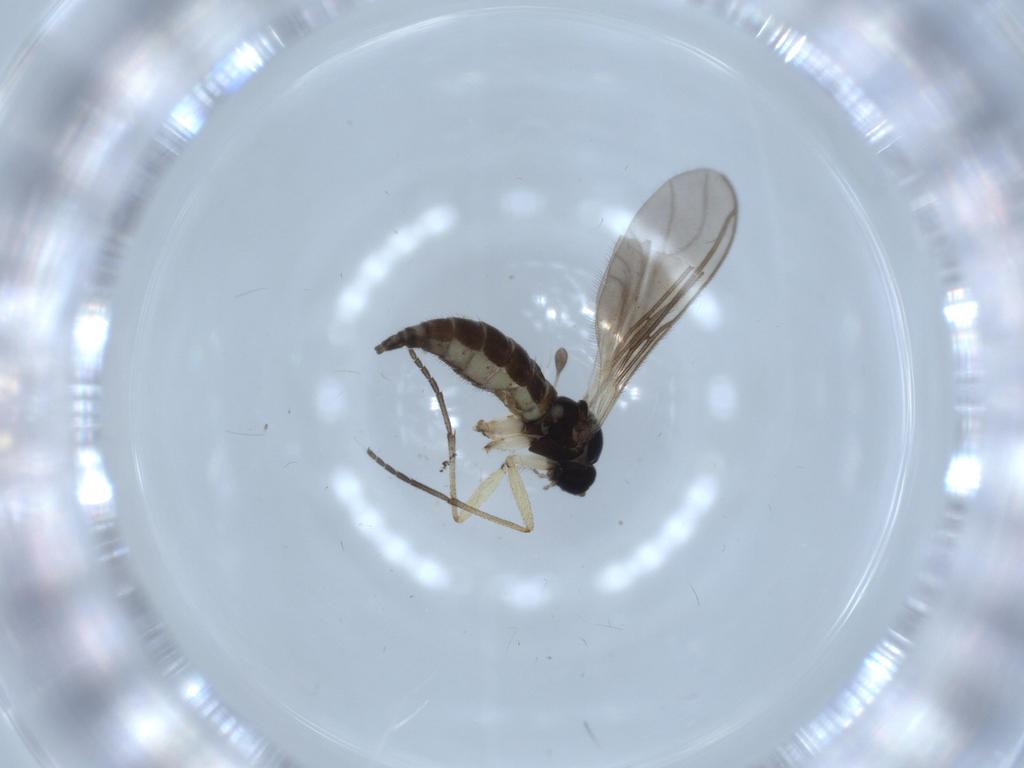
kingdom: Animalia
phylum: Arthropoda
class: Insecta
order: Diptera
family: Sciaridae
